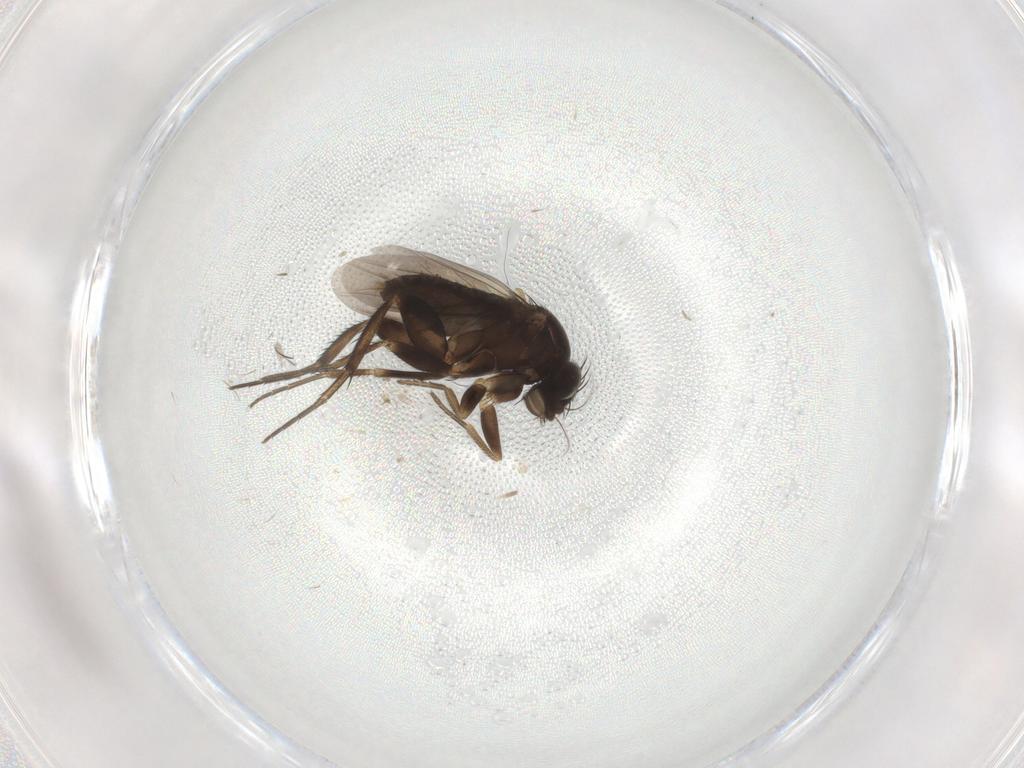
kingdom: Animalia
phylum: Arthropoda
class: Insecta
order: Diptera
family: Phoridae
